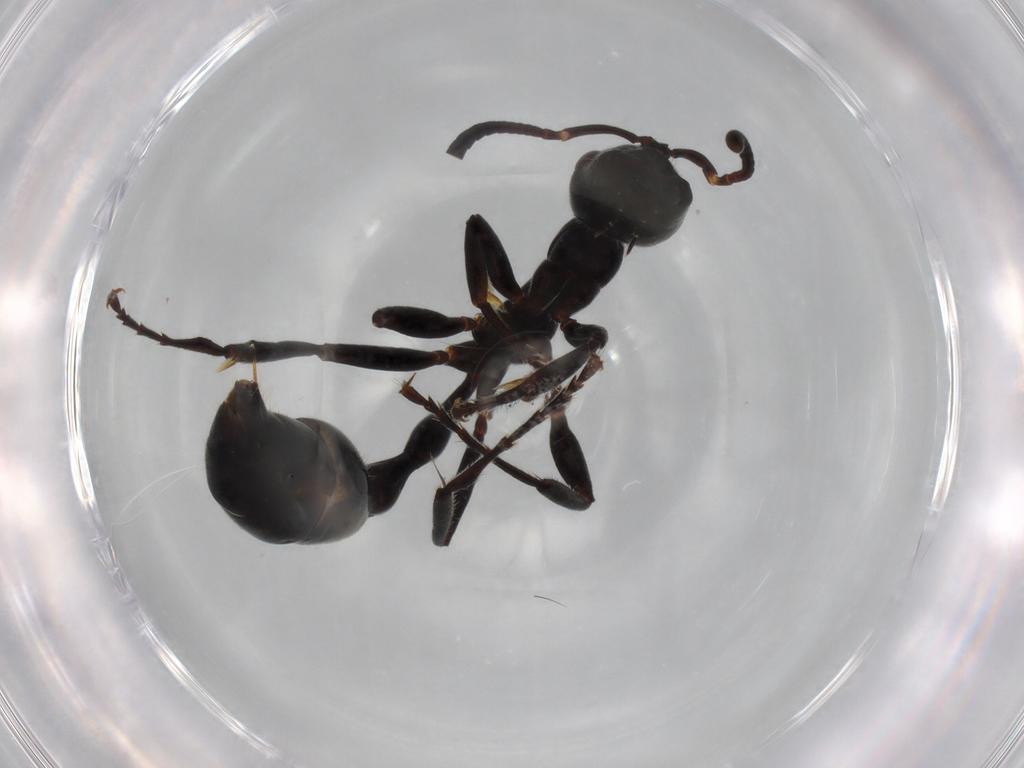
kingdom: Animalia
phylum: Arthropoda
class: Insecta
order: Hymenoptera
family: Formicidae
